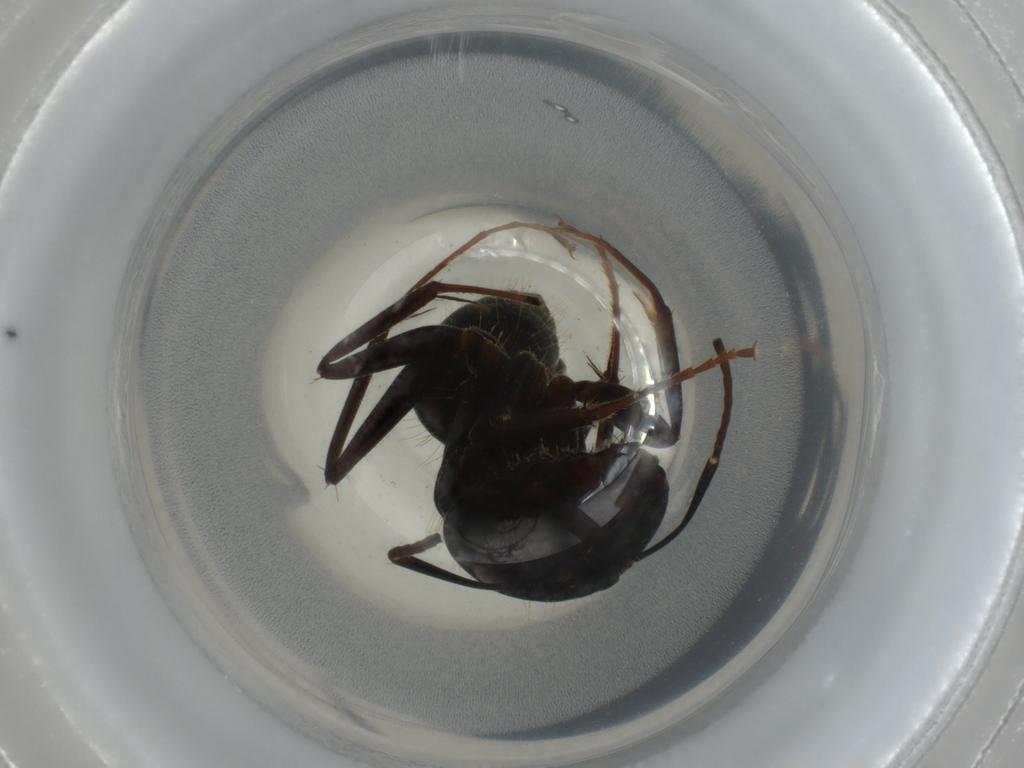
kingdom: Animalia
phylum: Arthropoda
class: Insecta
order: Hymenoptera
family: Formicidae
